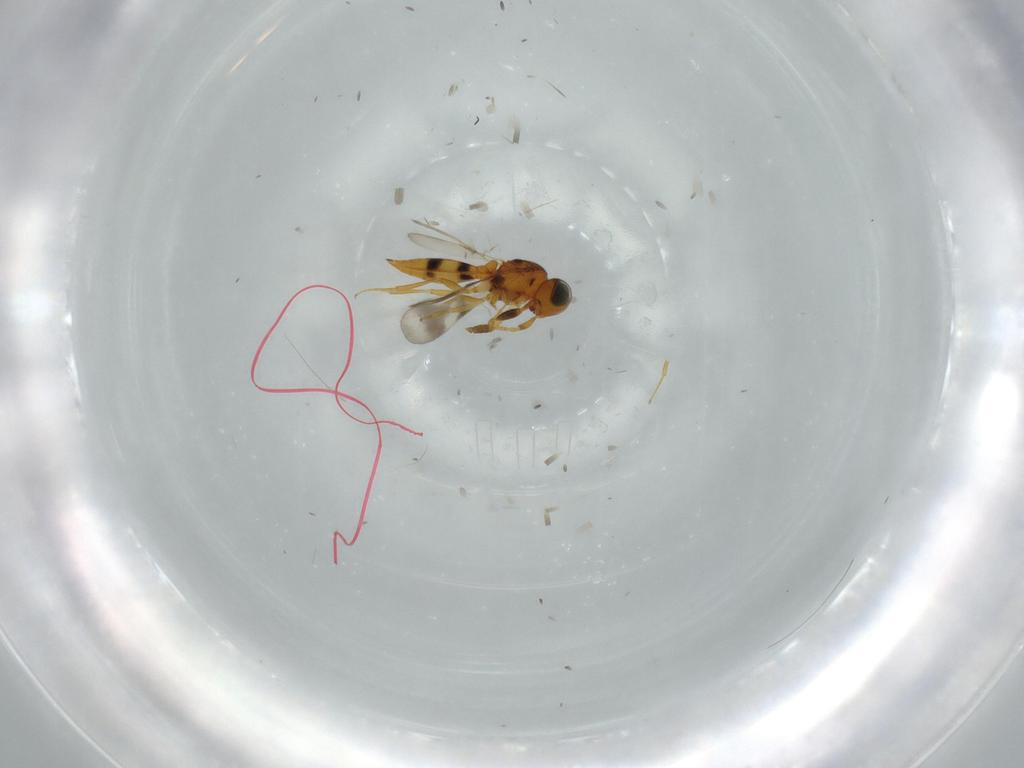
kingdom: Animalia
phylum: Arthropoda
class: Insecta
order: Hymenoptera
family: Scelionidae
